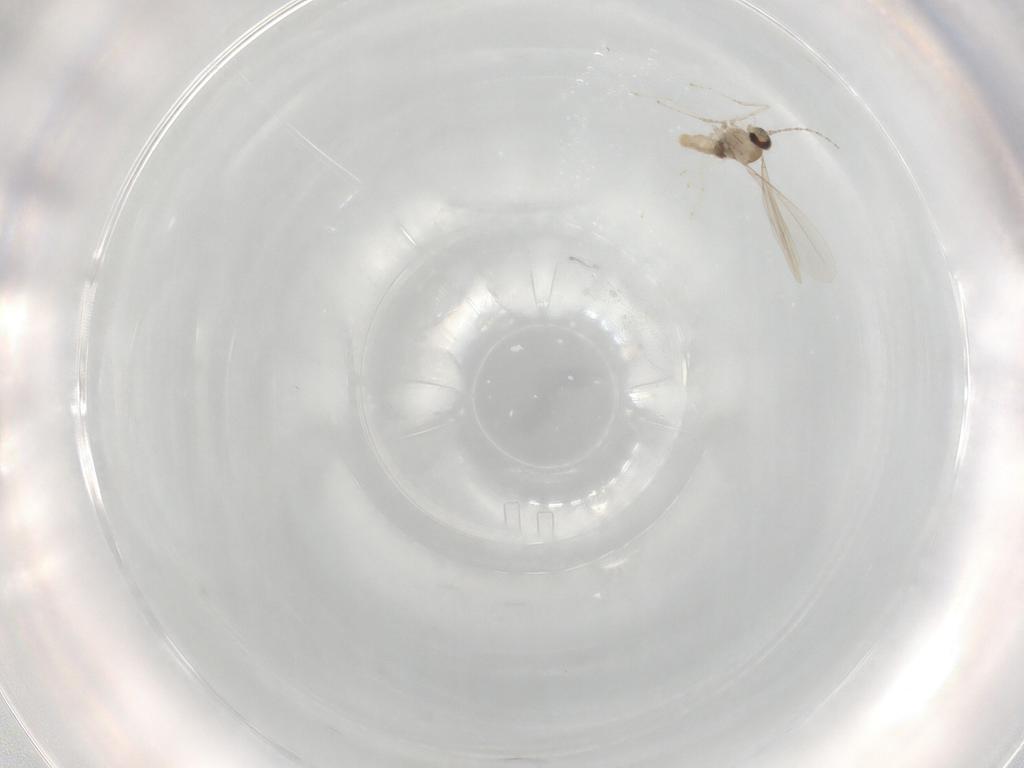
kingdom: Animalia
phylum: Arthropoda
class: Insecta
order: Diptera
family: Cecidomyiidae
